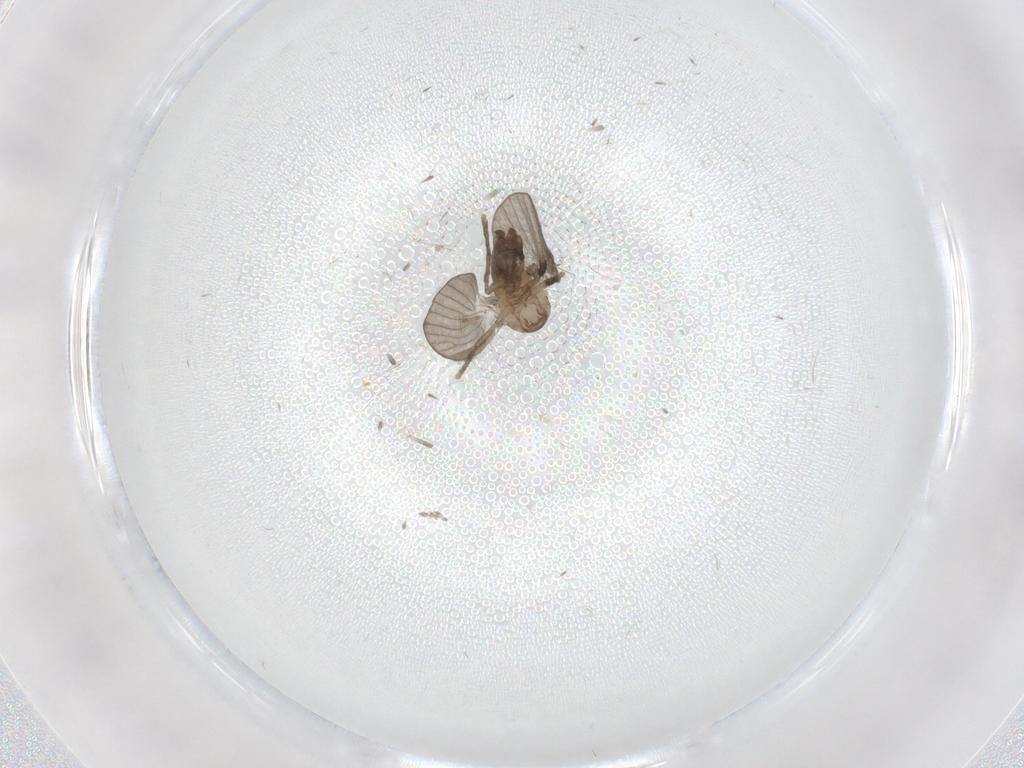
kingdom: Animalia
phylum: Arthropoda
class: Insecta
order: Diptera
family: Psychodidae
